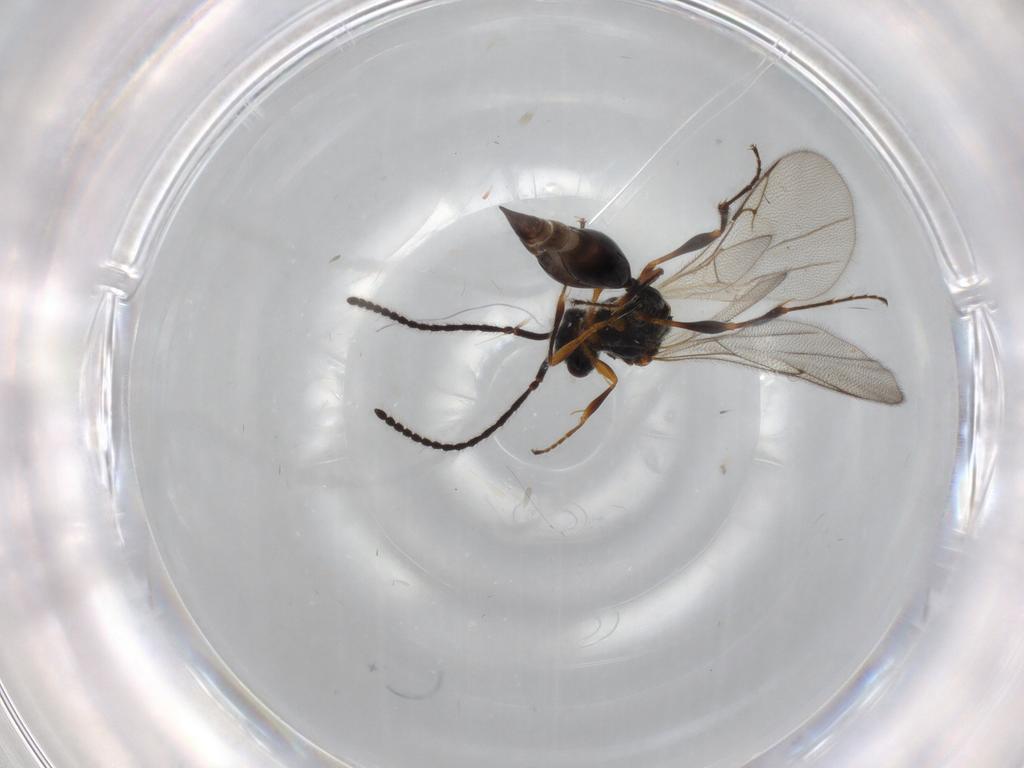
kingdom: Animalia
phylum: Arthropoda
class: Insecta
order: Hymenoptera
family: Diapriidae
